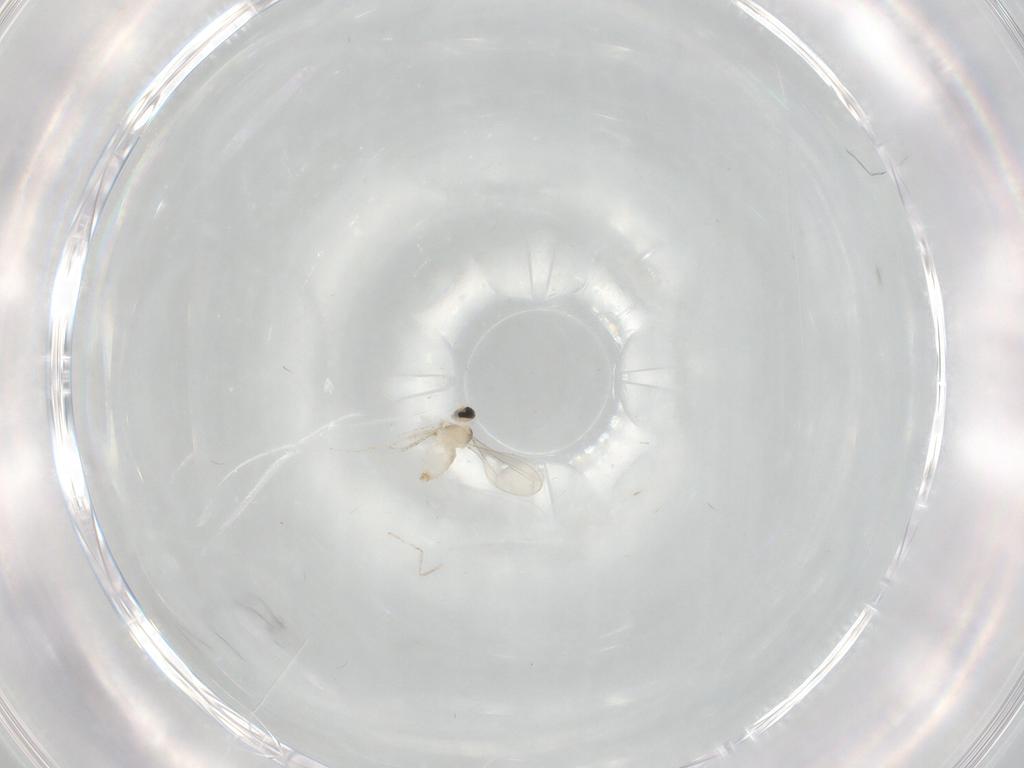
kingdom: Animalia
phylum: Arthropoda
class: Insecta
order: Diptera
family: Cecidomyiidae
